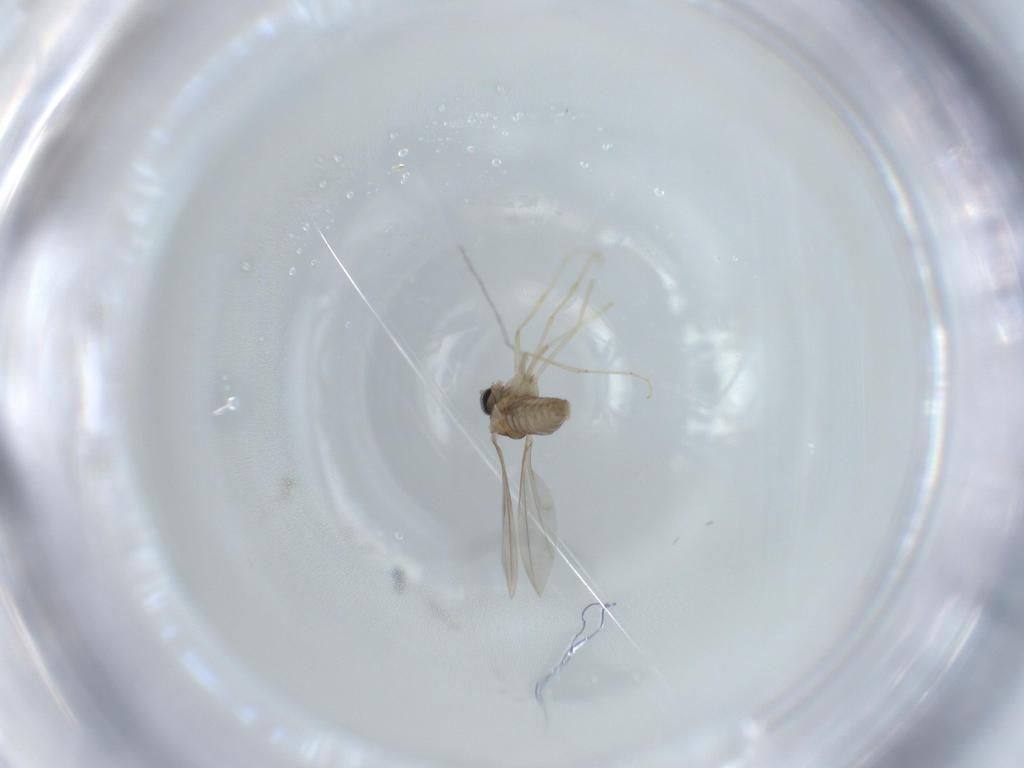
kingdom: Animalia
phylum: Arthropoda
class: Insecta
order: Diptera
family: Cecidomyiidae
